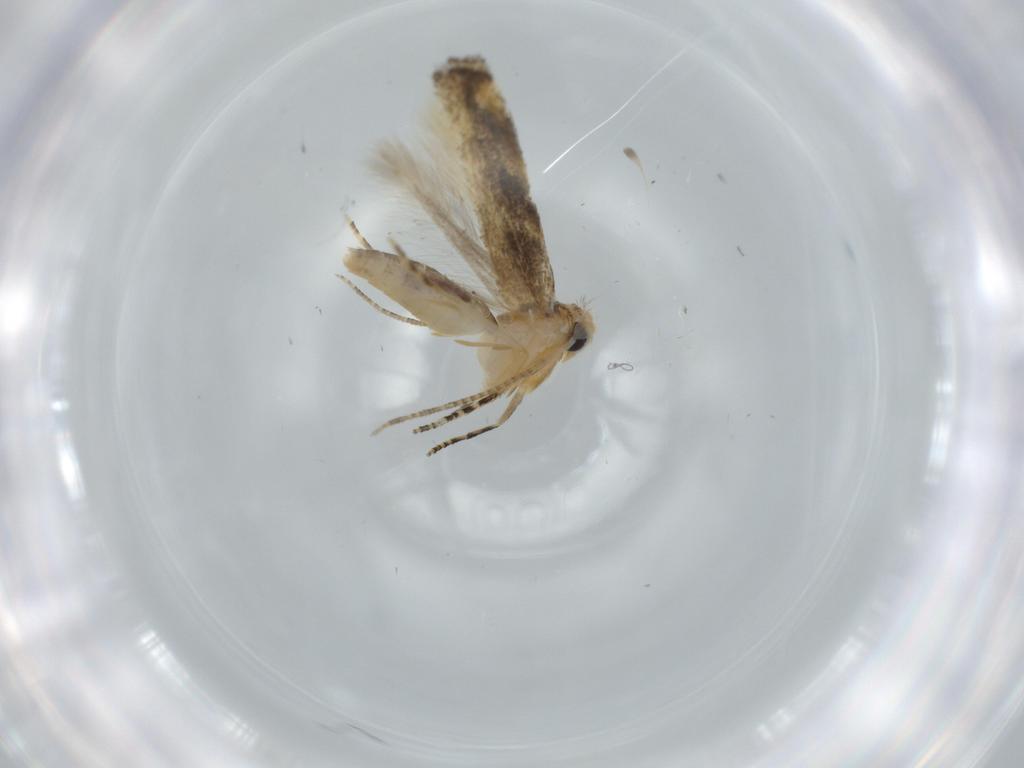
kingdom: Animalia
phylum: Arthropoda
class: Insecta
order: Lepidoptera
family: Bucculatricidae
